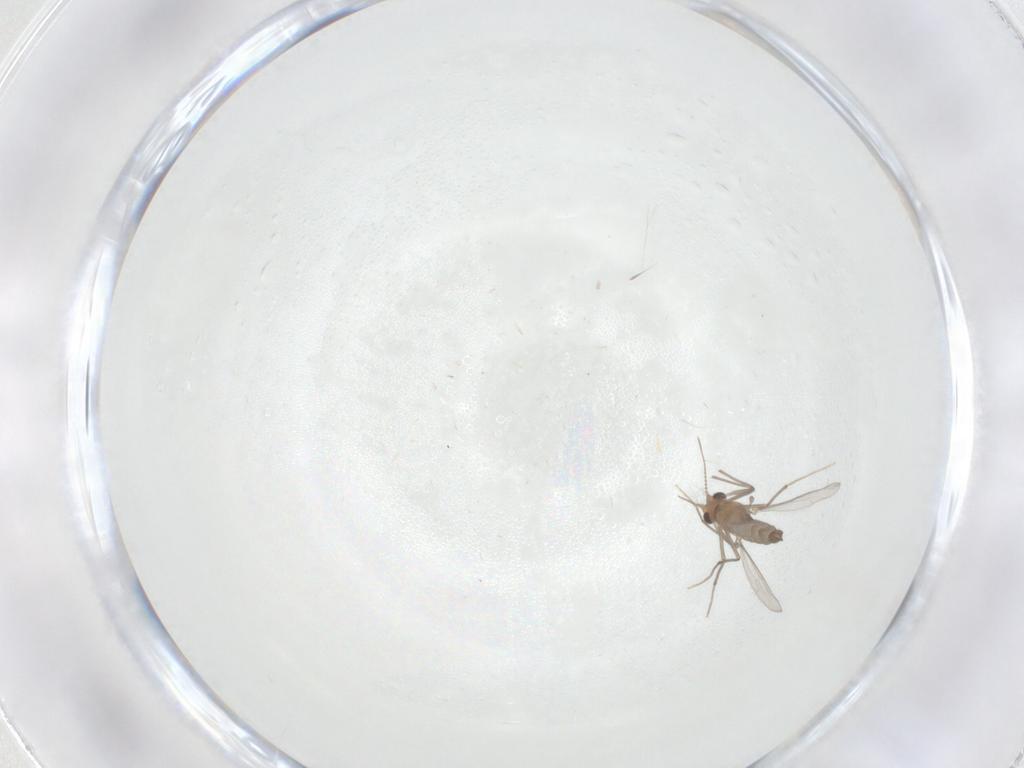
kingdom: Animalia
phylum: Arthropoda
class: Insecta
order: Diptera
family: Chironomidae
